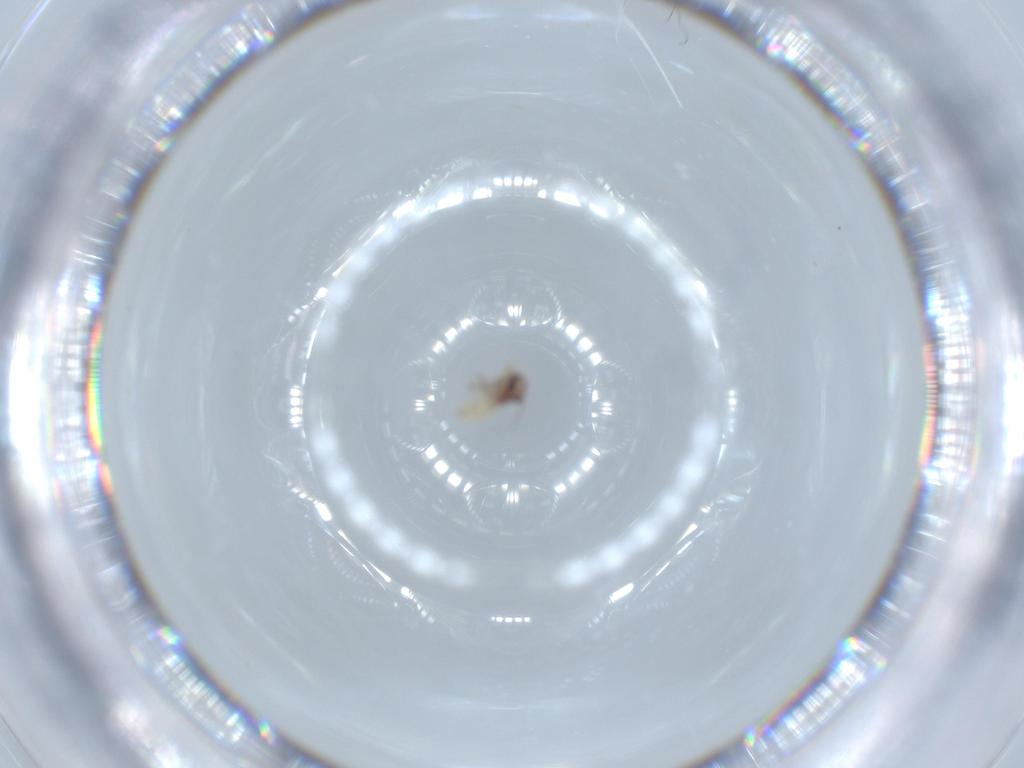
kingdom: Animalia
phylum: Arthropoda
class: Insecta
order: Psocodea
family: Lepidopsocidae
